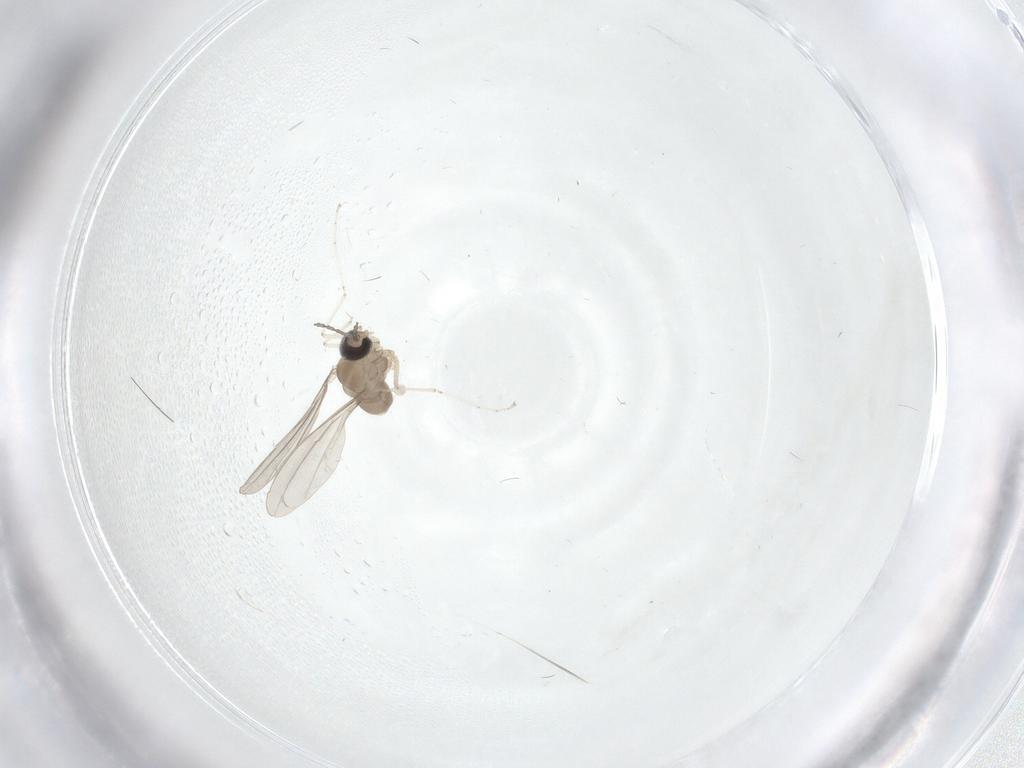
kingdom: Animalia
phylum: Arthropoda
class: Insecta
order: Diptera
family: Cecidomyiidae
